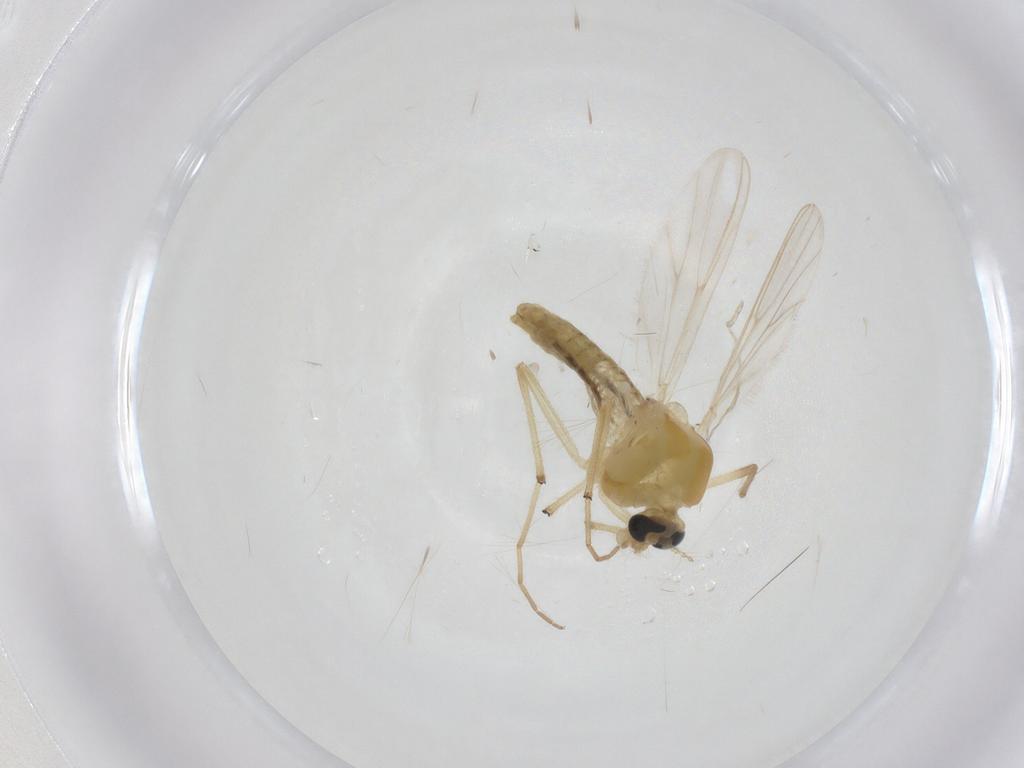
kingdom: Animalia
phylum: Arthropoda
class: Insecta
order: Diptera
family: Chironomidae
